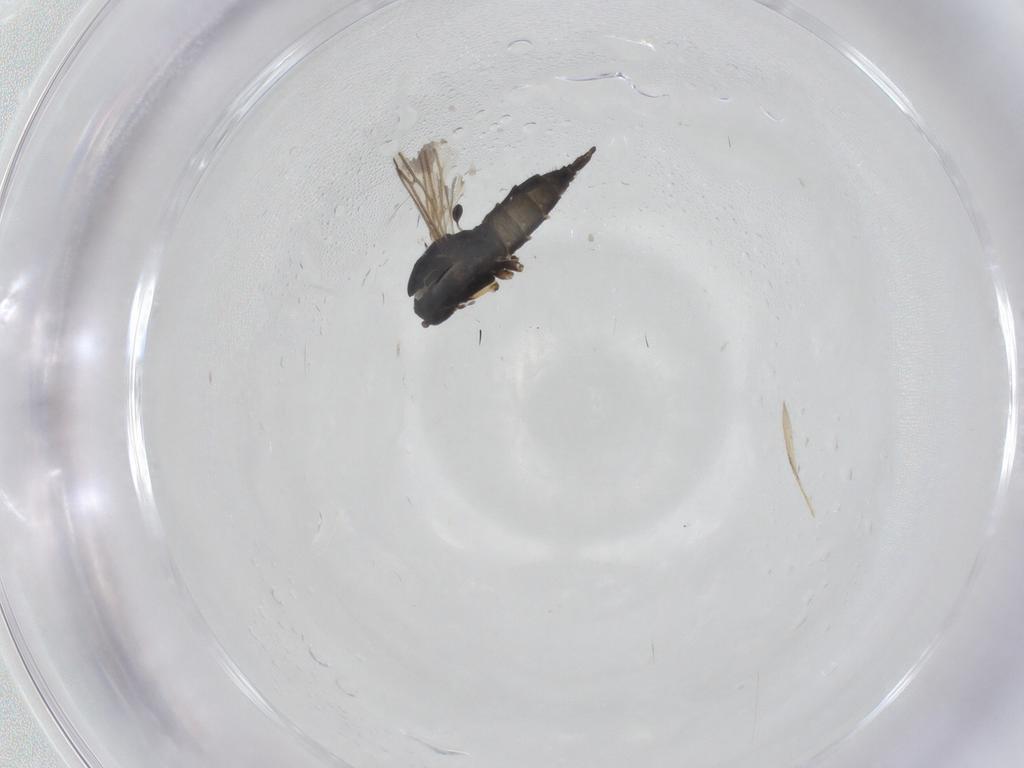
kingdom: Animalia
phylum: Arthropoda
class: Insecta
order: Diptera
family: Sciaridae
